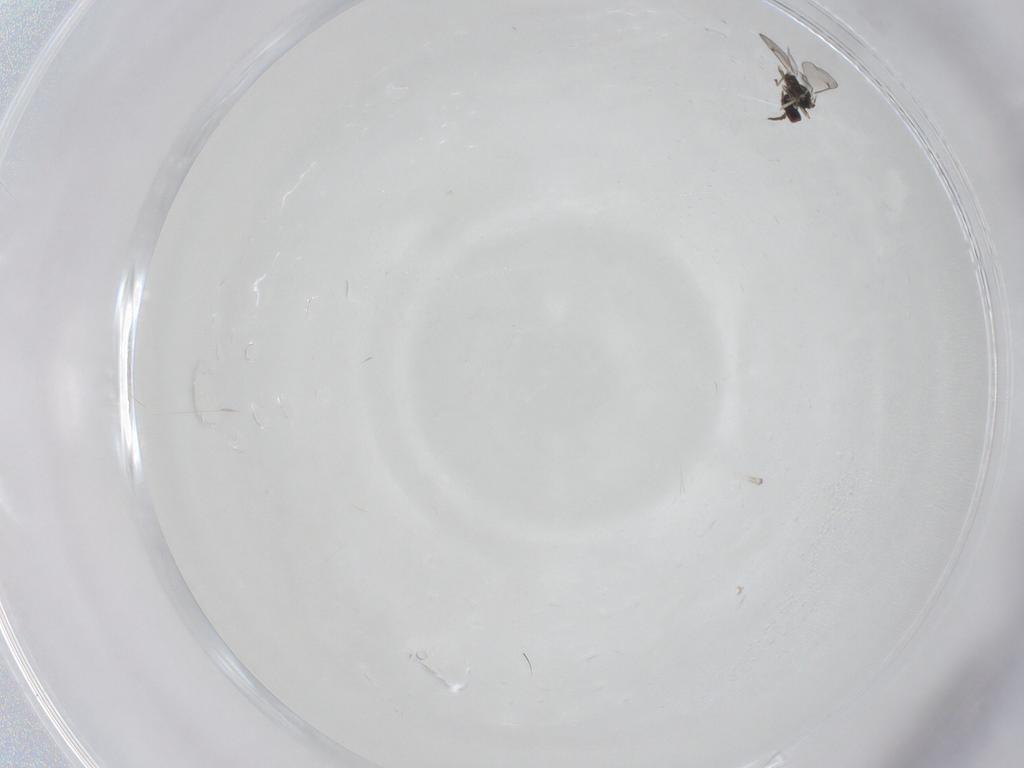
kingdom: Animalia
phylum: Arthropoda
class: Insecta
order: Hymenoptera
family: Eulophidae
